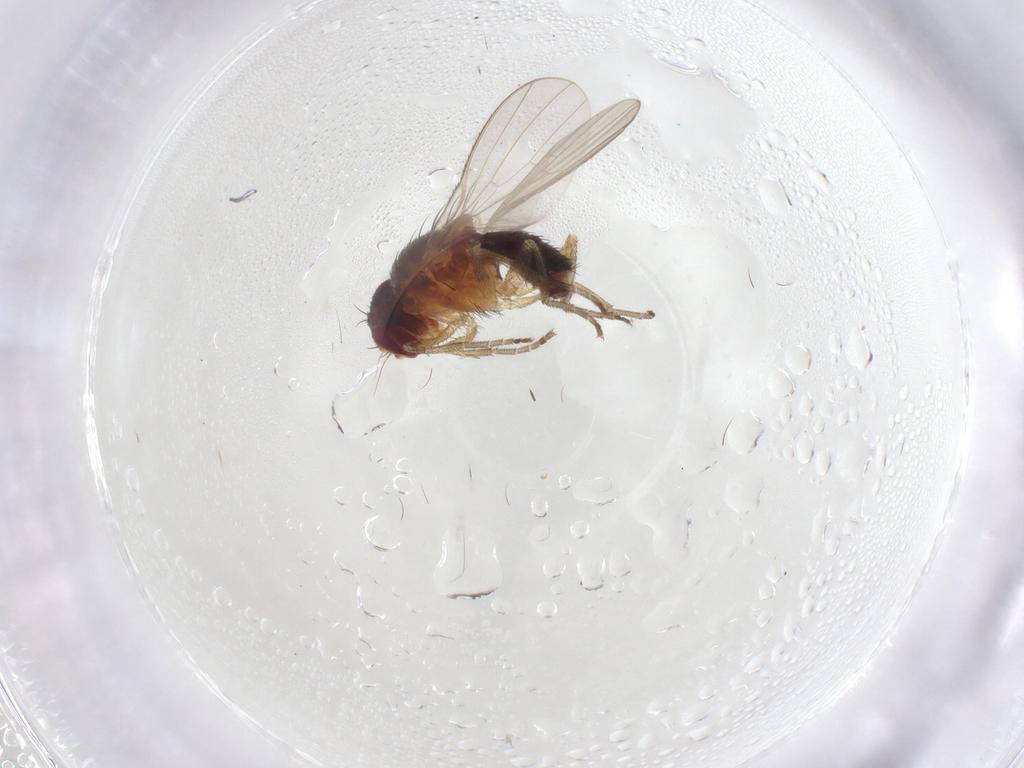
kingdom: Animalia
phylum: Arthropoda
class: Insecta
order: Diptera
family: Heleomyzidae
